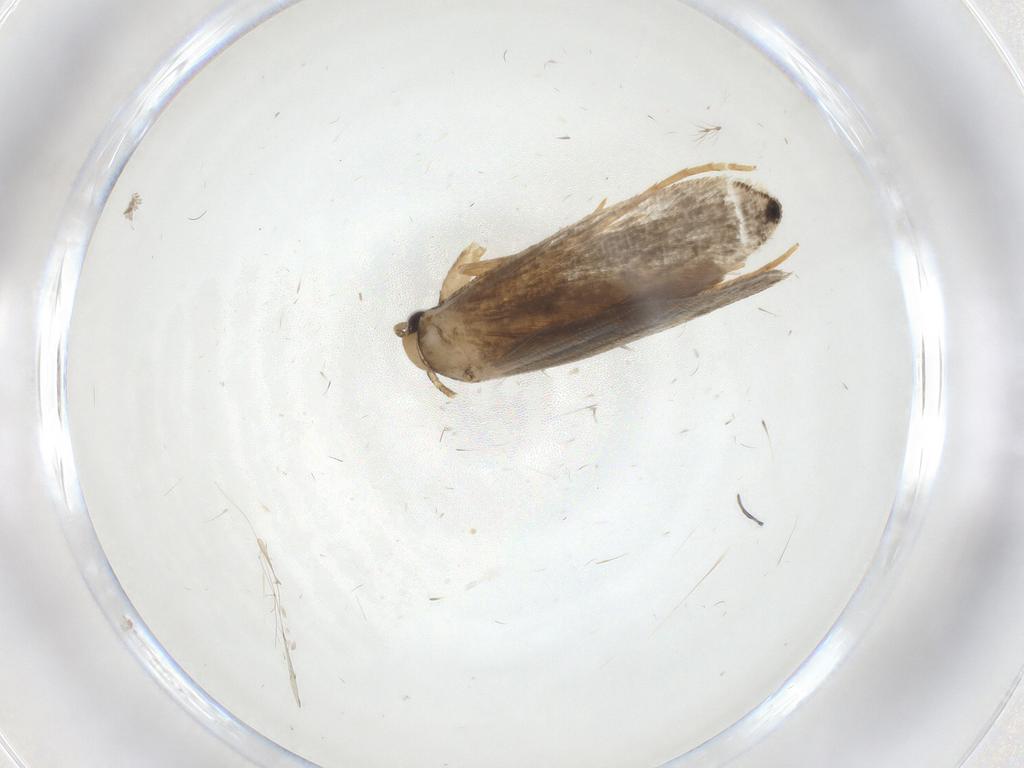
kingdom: Animalia
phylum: Arthropoda
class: Insecta
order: Lepidoptera
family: Tineidae
